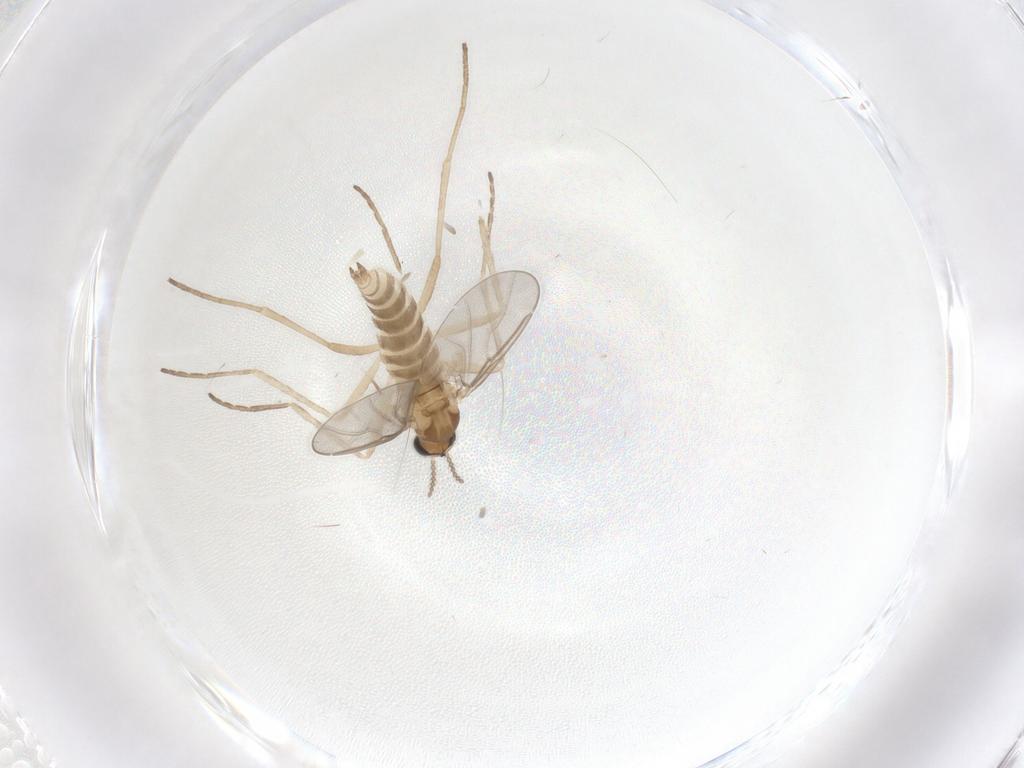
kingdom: Animalia
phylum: Arthropoda
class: Insecta
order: Diptera
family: Cecidomyiidae
